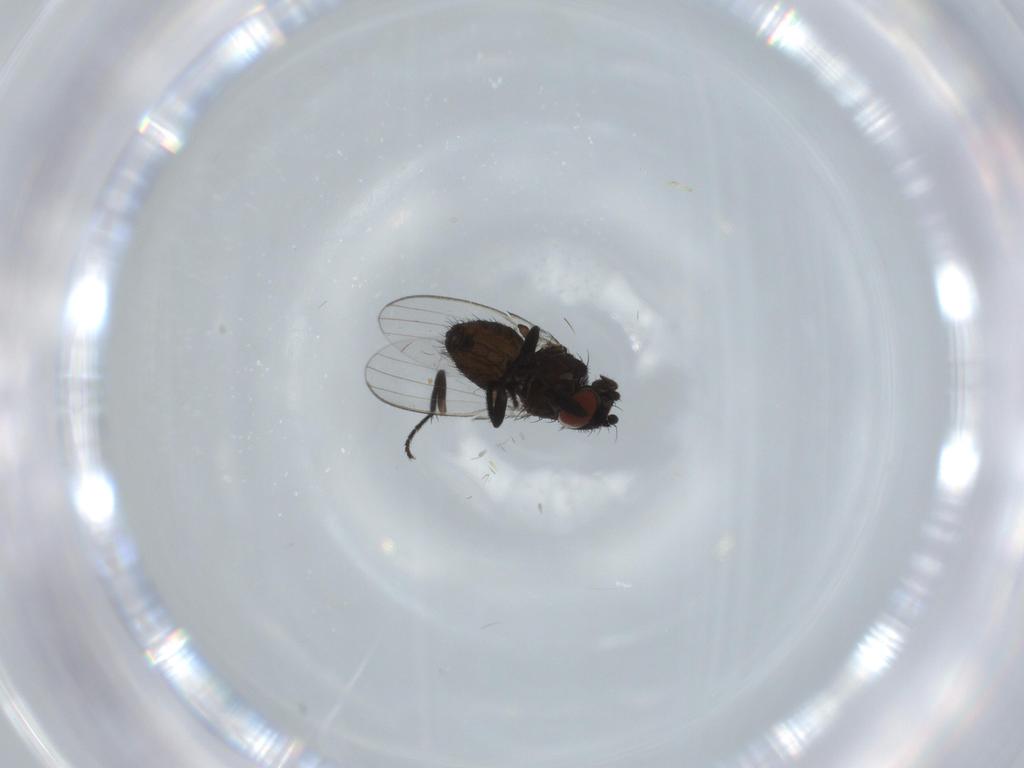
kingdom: Animalia
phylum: Arthropoda
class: Insecta
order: Diptera
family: Milichiidae
